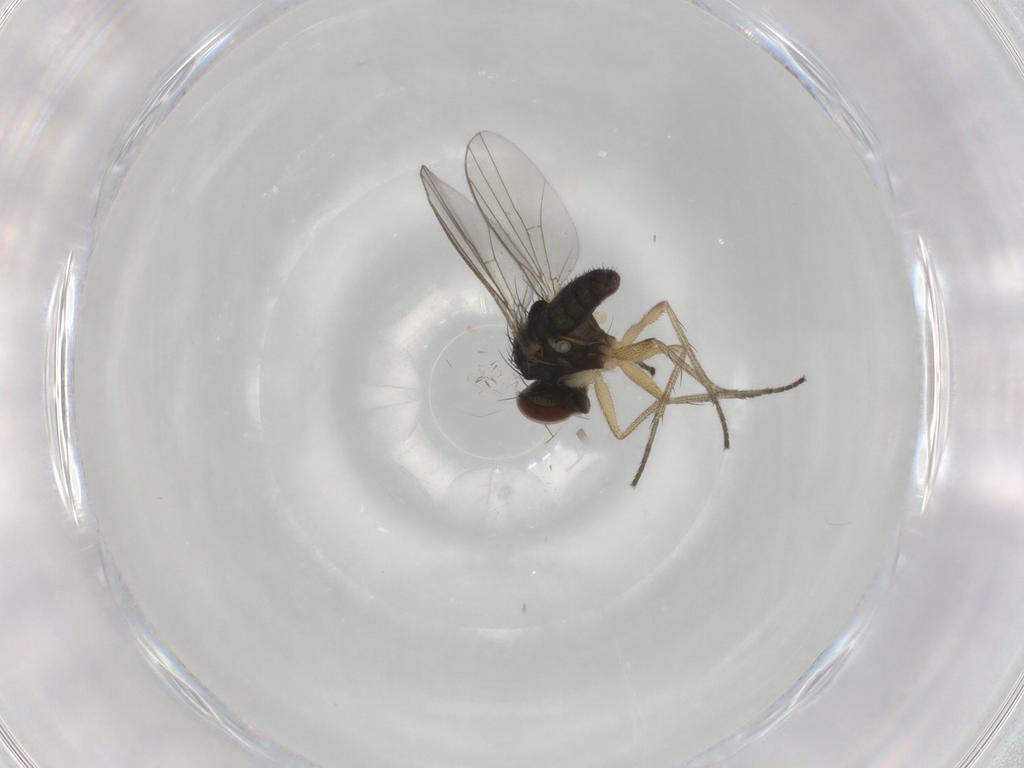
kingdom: Animalia
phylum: Arthropoda
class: Insecta
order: Diptera
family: Dolichopodidae
